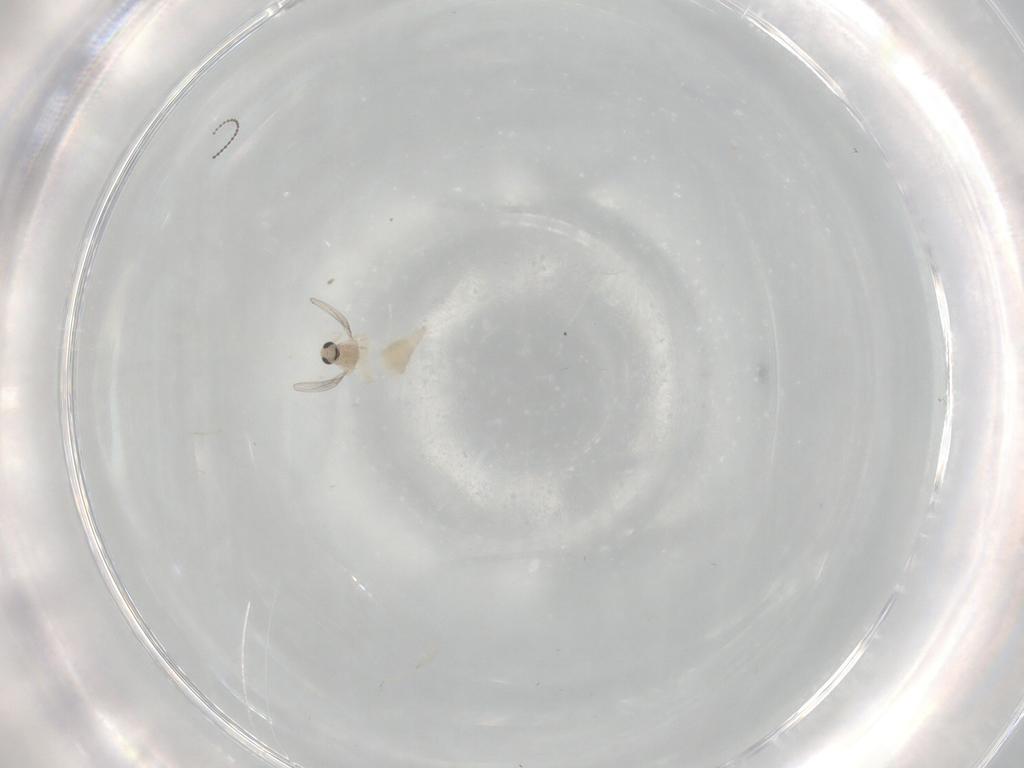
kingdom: Animalia
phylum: Arthropoda
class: Insecta
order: Diptera
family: Cecidomyiidae
